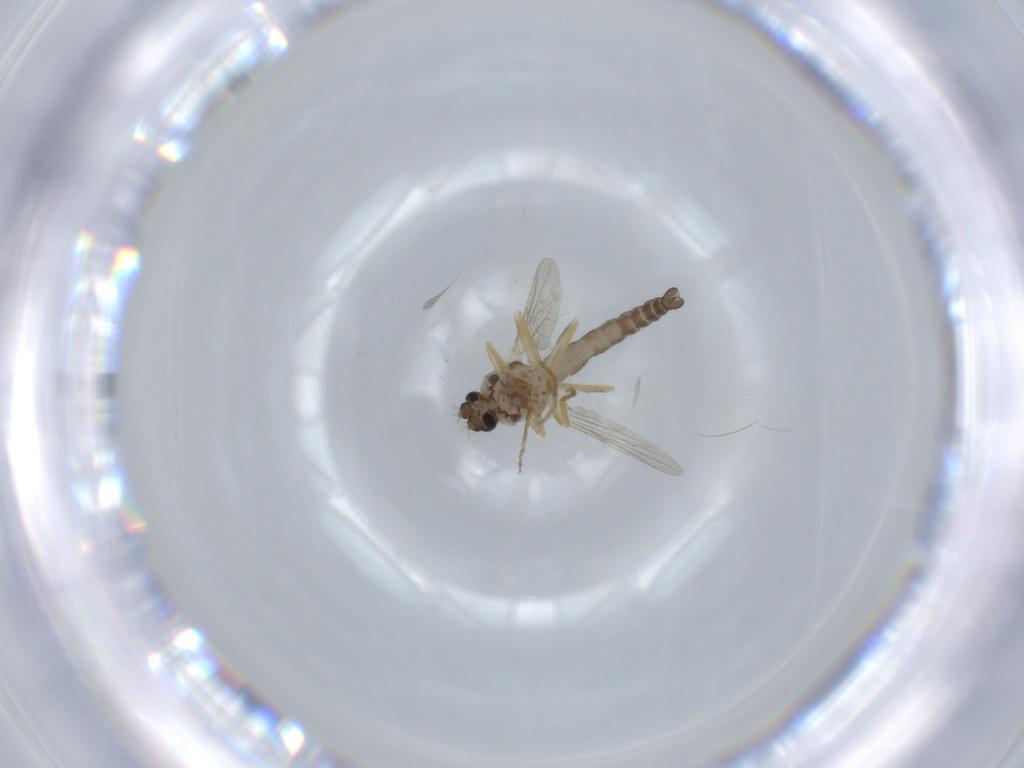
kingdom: Animalia
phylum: Arthropoda
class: Insecta
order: Diptera
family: Ceratopogonidae
